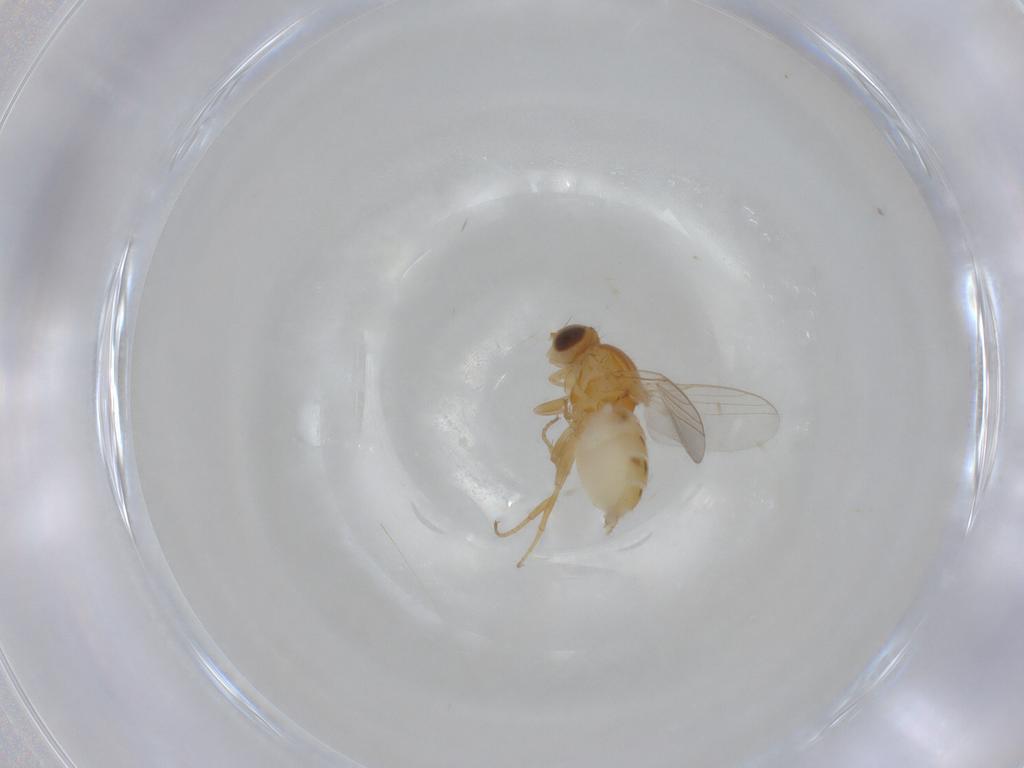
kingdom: Animalia
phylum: Arthropoda
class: Insecta
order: Diptera
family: Chloropidae
